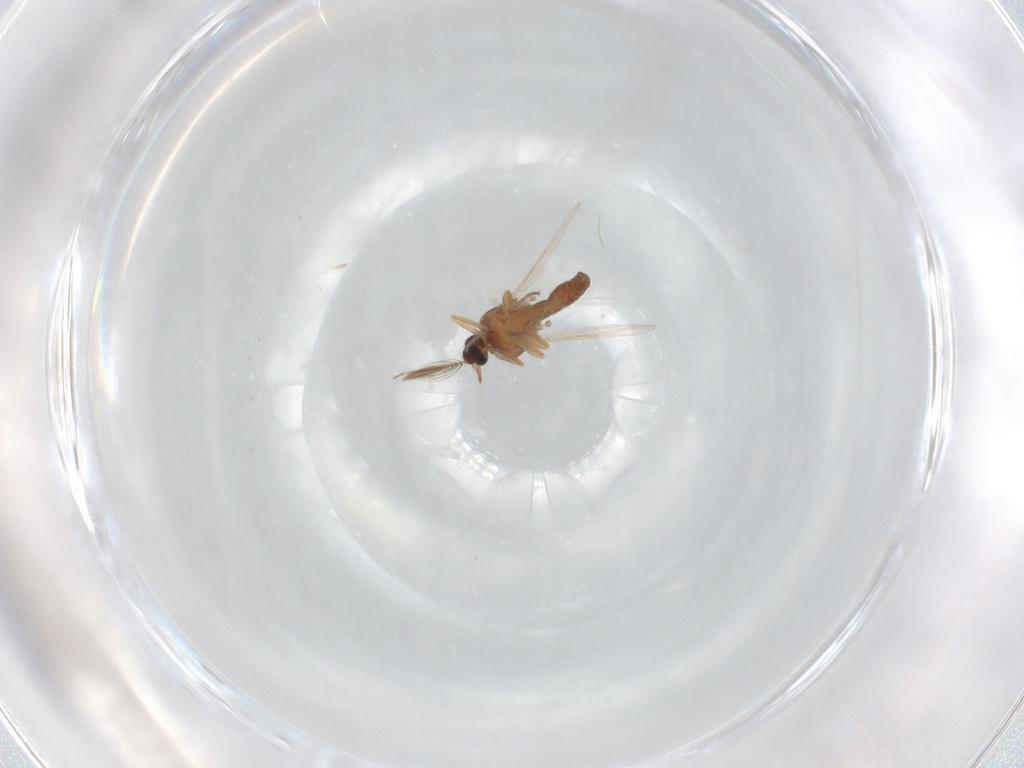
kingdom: Animalia
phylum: Arthropoda
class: Insecta
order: Diptera
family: Ceratopogonidae
